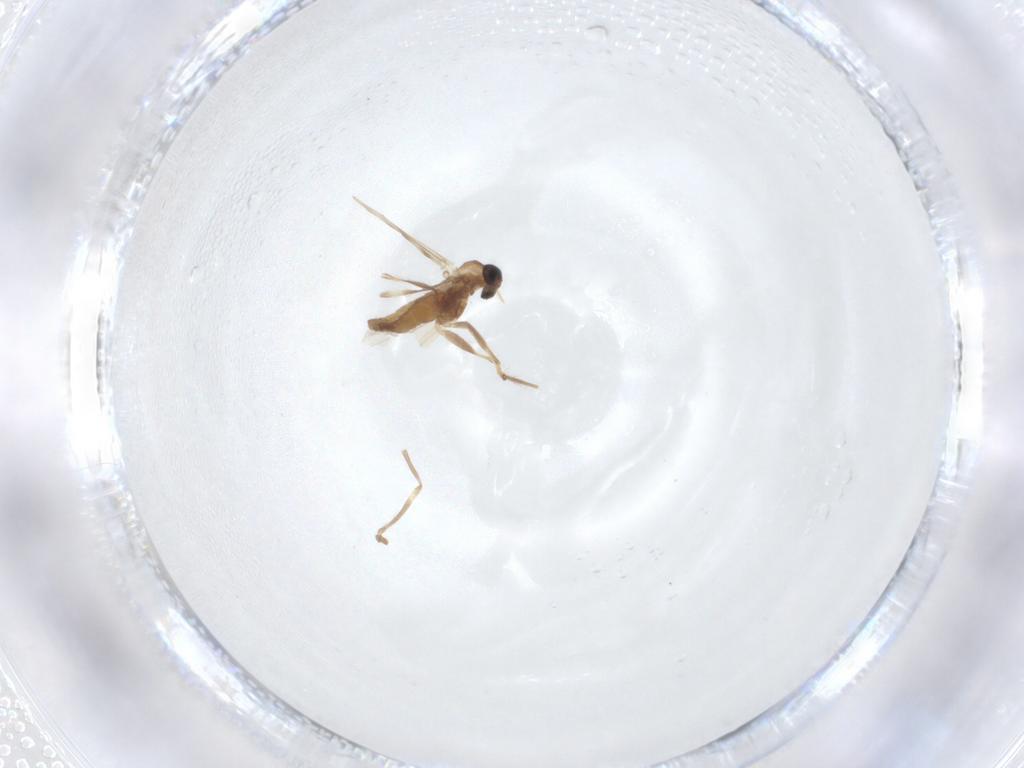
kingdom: Animalia
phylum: Arthropoda
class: Insecta
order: Diptera
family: Chironomidae
